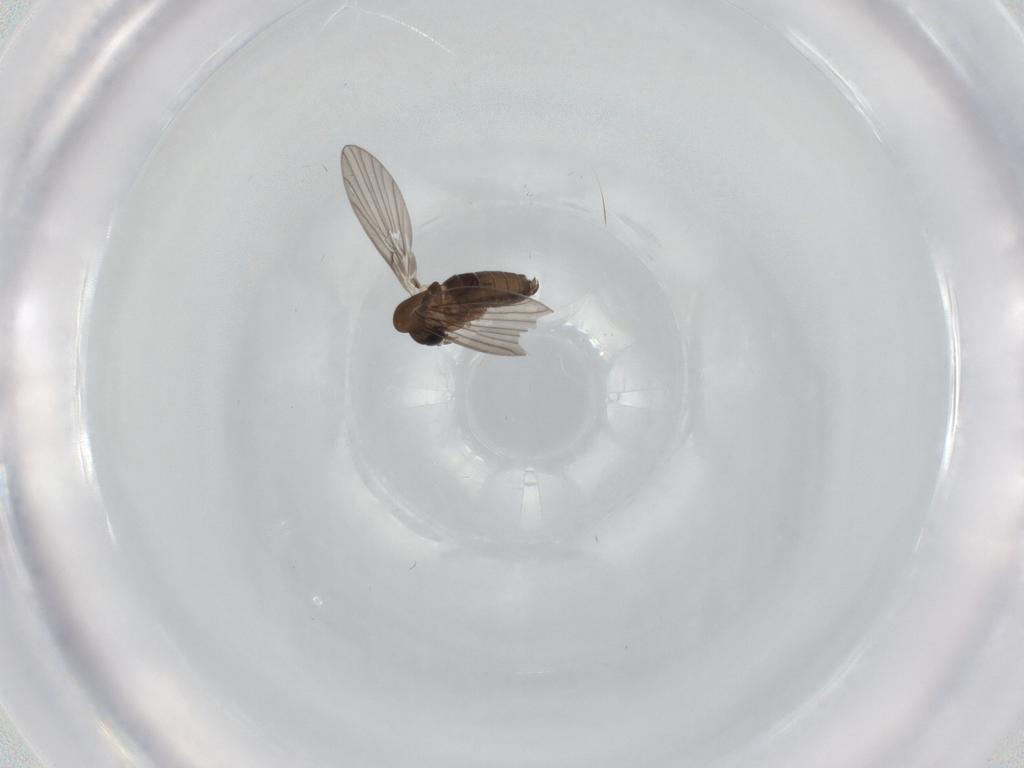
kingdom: Animalia
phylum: Arthropoda
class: Insecta
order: Diptera
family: Psychodidae
